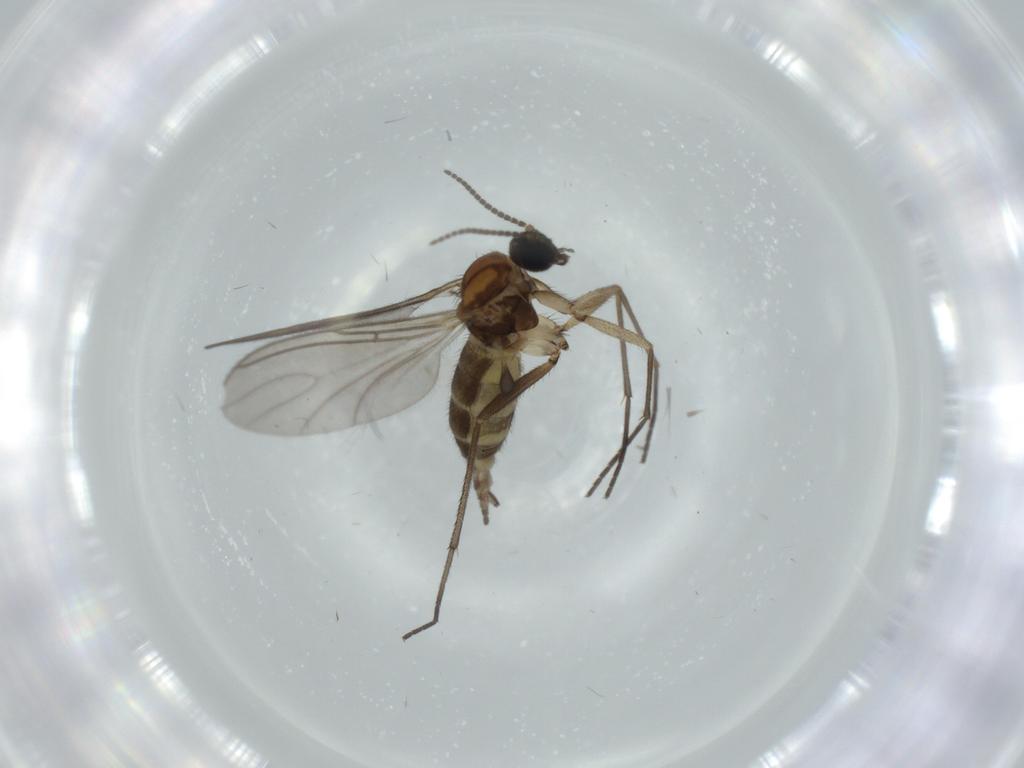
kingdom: Animalia
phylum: Arthropoda
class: Insecta
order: Diptera
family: Sciaridae
